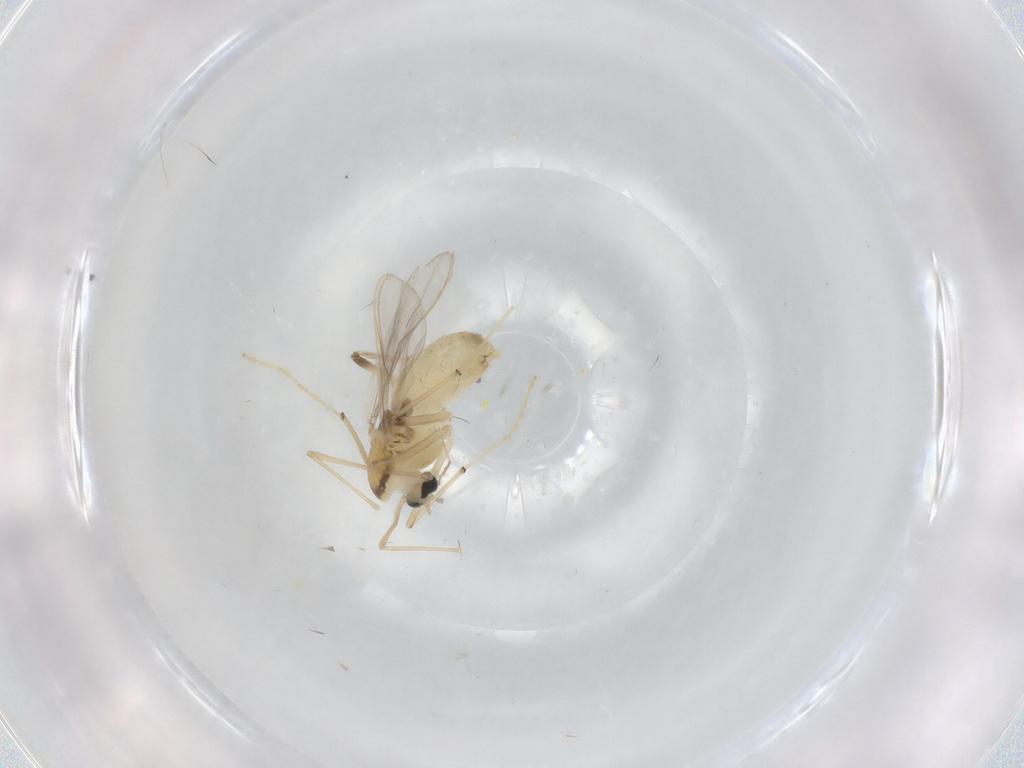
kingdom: Animalia
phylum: Arthropoda
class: Insecta
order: Diptera
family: Chironomidae
